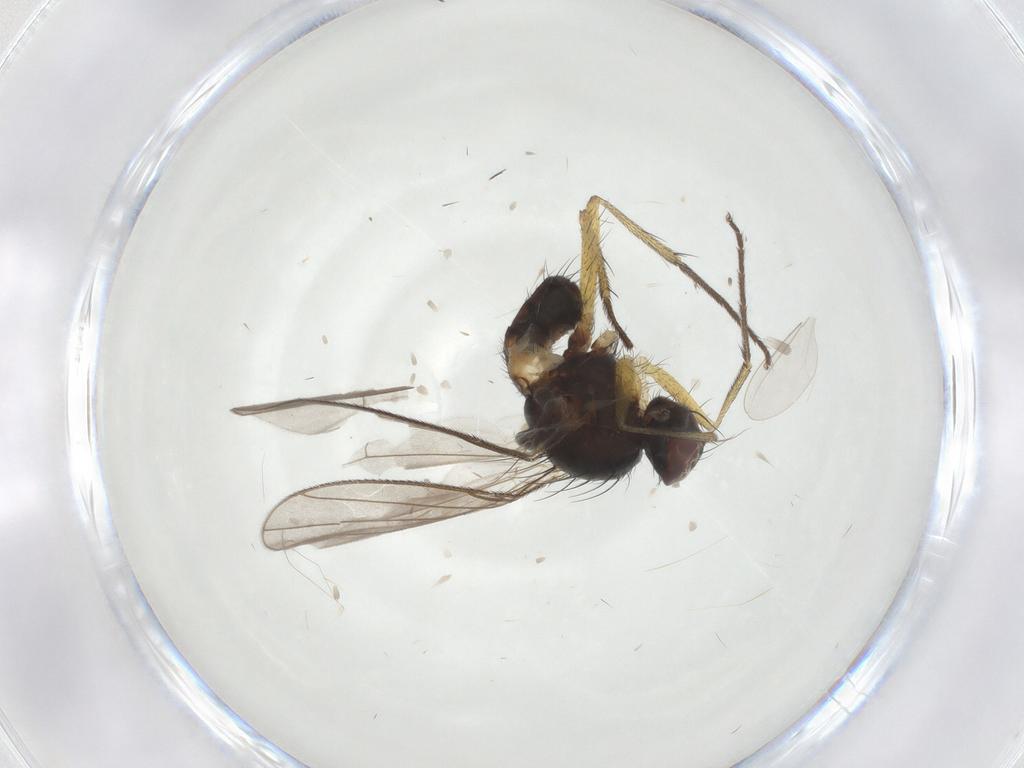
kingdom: Animalia
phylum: Arthropoda
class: Insecta
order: Diptera
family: Muscidae
